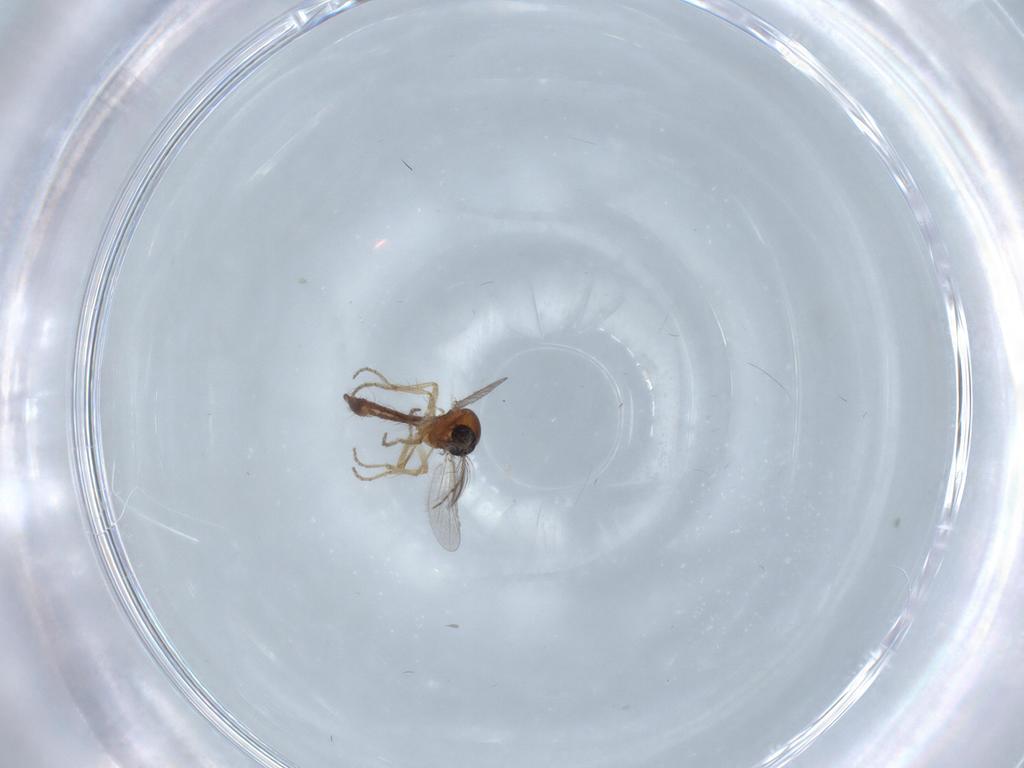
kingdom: Animalia
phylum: Arthropoda
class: Insecta
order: Diptera
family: Ceratopogonidae
